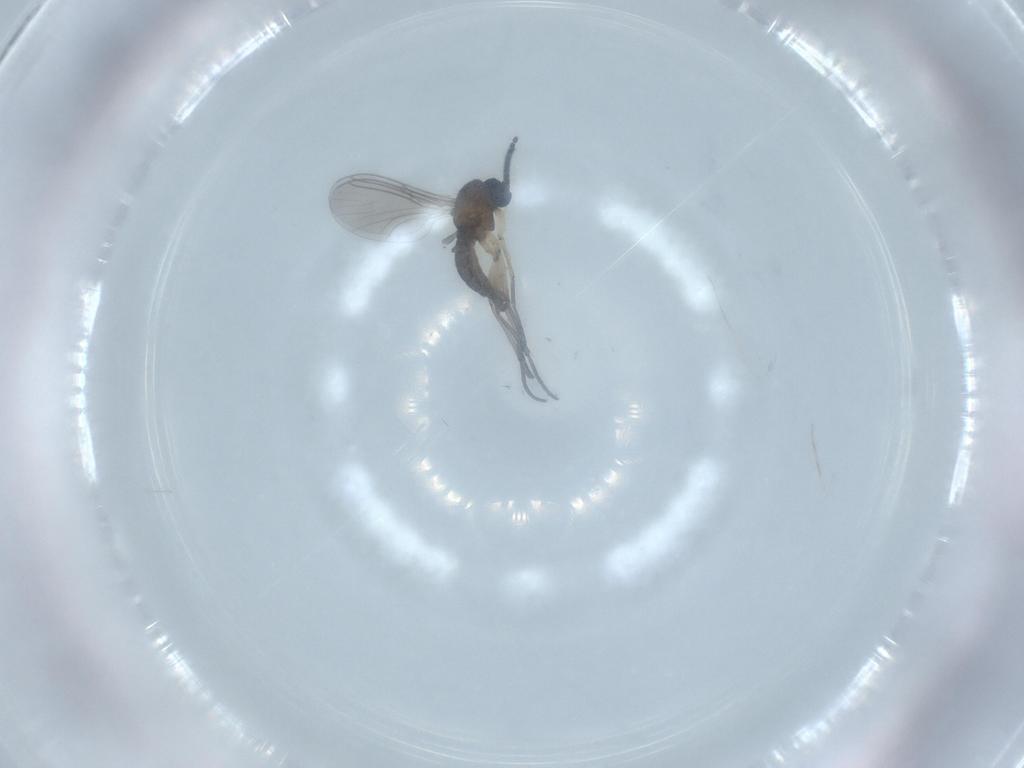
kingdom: Animalia
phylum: Arthropoda
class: Insecta
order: Diptera
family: Sciaridae
